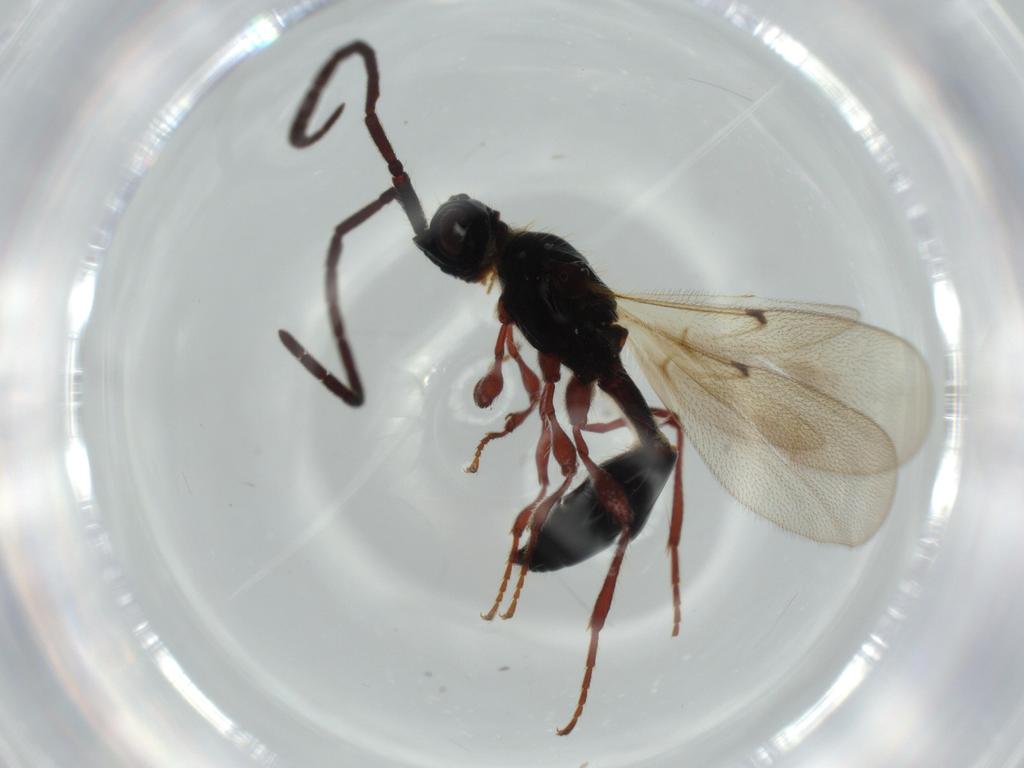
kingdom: Animalia
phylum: Arthropoda
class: Insecta
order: Hymenoptera
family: Diapriidae
